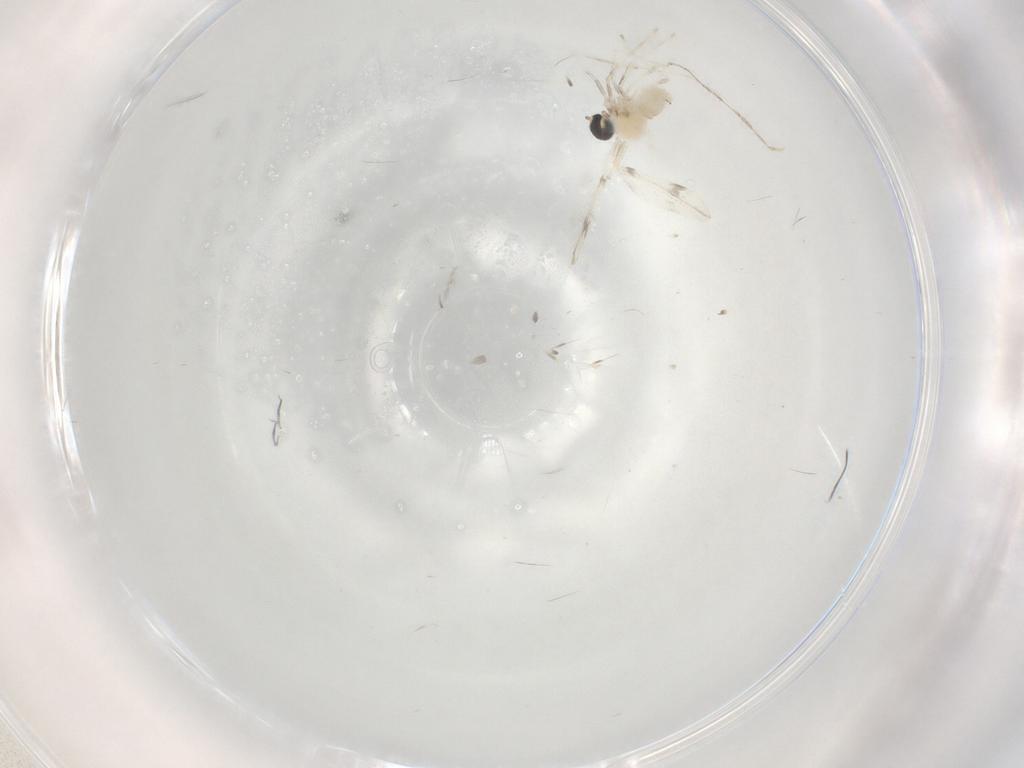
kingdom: Animalia
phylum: Arthropoda
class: Insecta
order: Diptera
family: Cecidomyiidae
